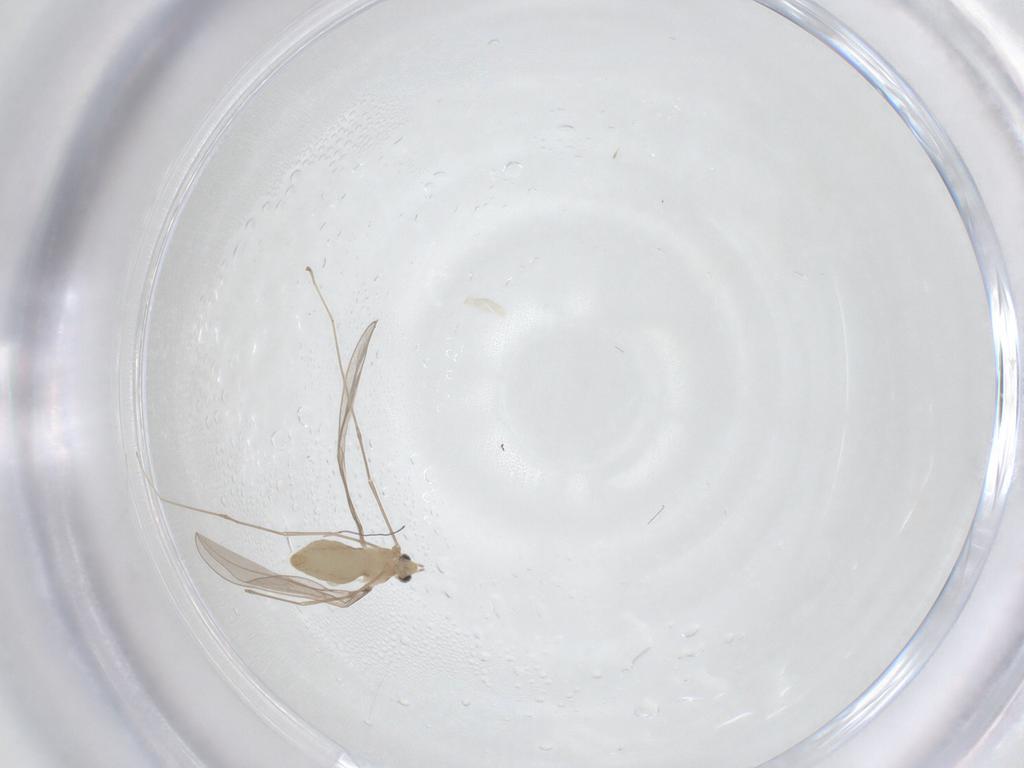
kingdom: Animalia
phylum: Arthropoda
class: Insecta
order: Diptera
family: Cecidomyiidae
